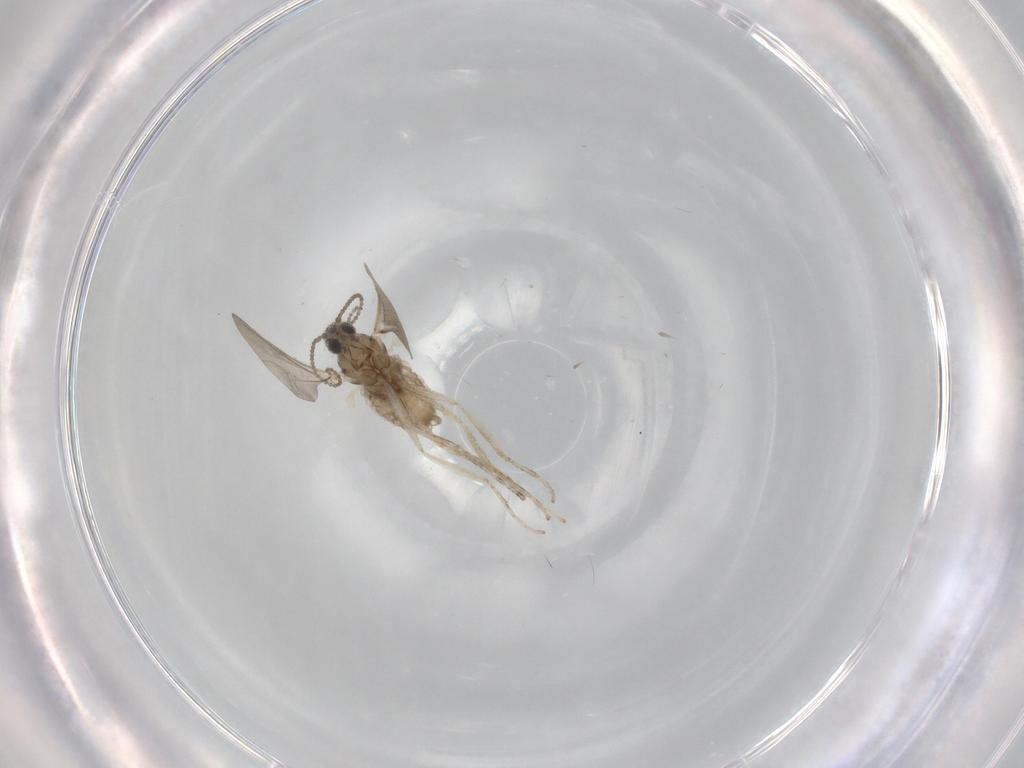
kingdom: Animalia
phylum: Arthropoda
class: Insecta
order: Diptera
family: Cecidomyiidae
